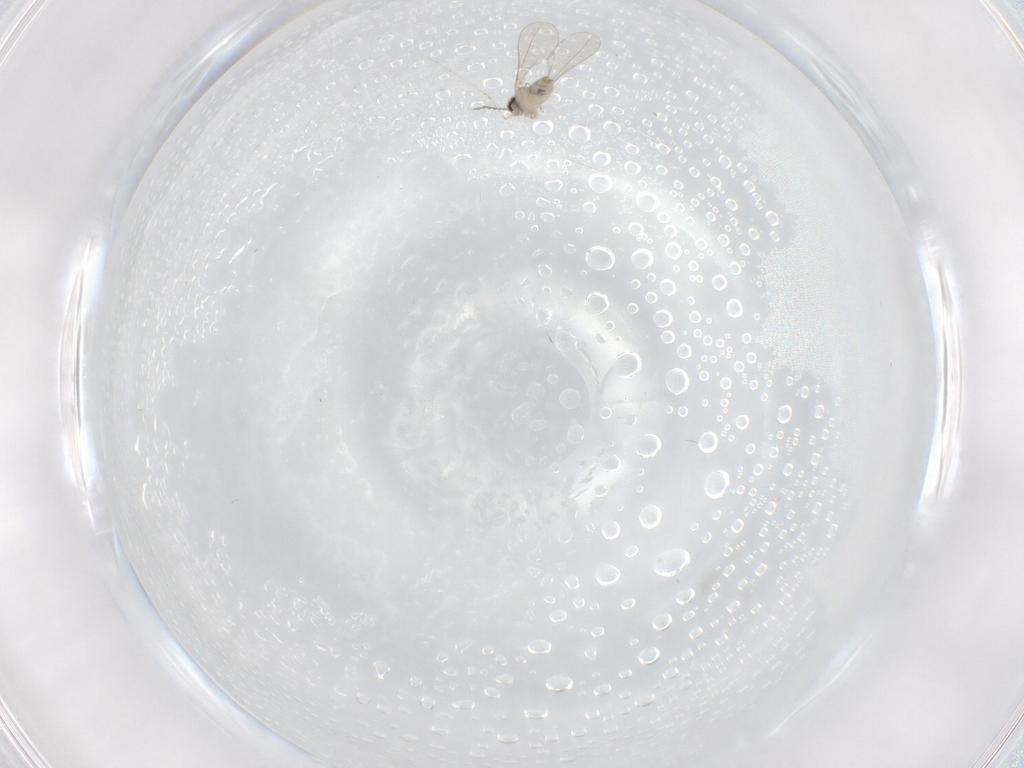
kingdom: Animalia
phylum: Arthropoda
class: Insecta
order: Diptera
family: Cecidomyiidae
